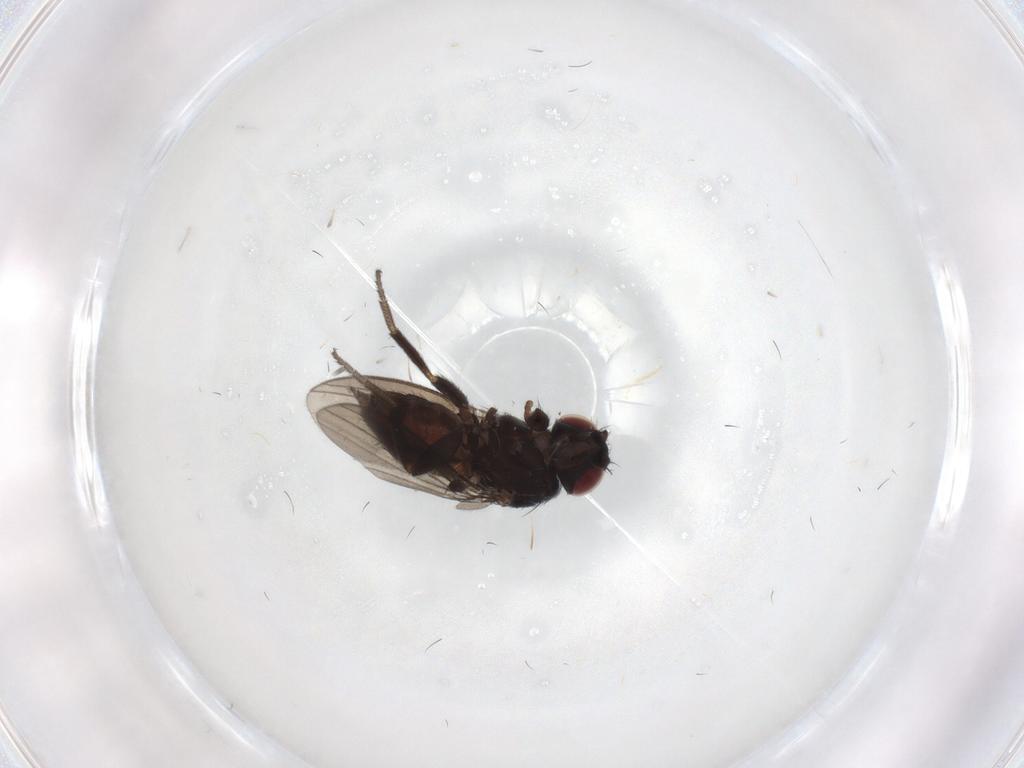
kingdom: Animalia
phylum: Arthropoda
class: Insecta
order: Diptera
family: Milichiidae
